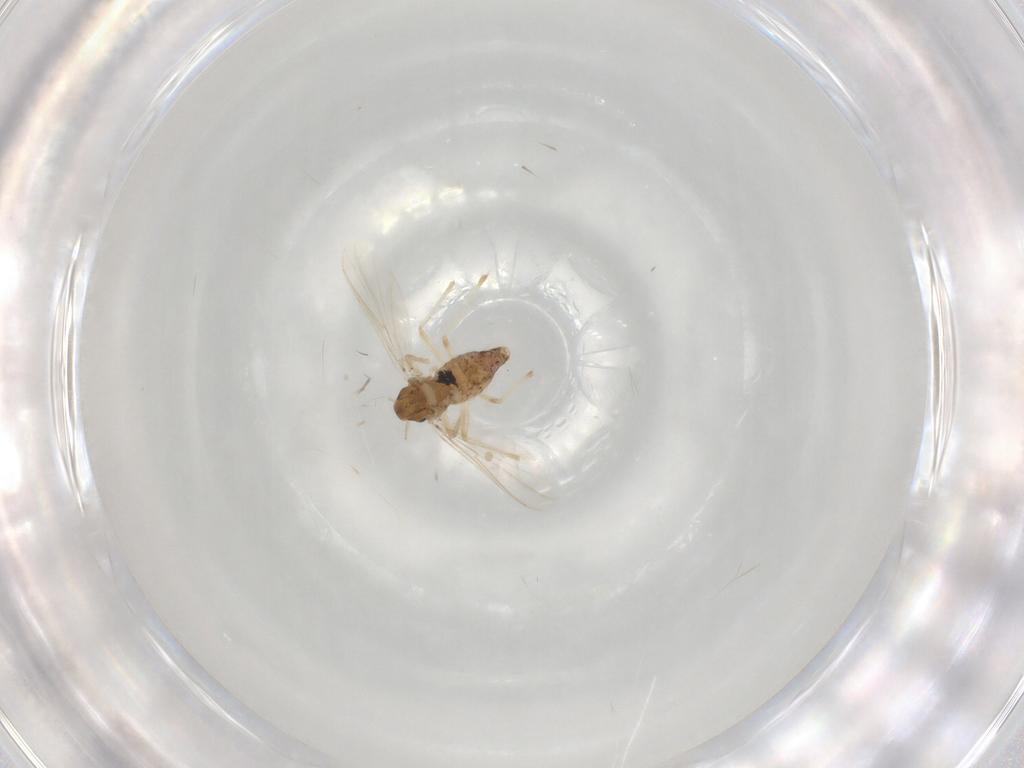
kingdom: Animalia
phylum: Arthropoda
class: Insecta
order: Diptera
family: Chironomidae
